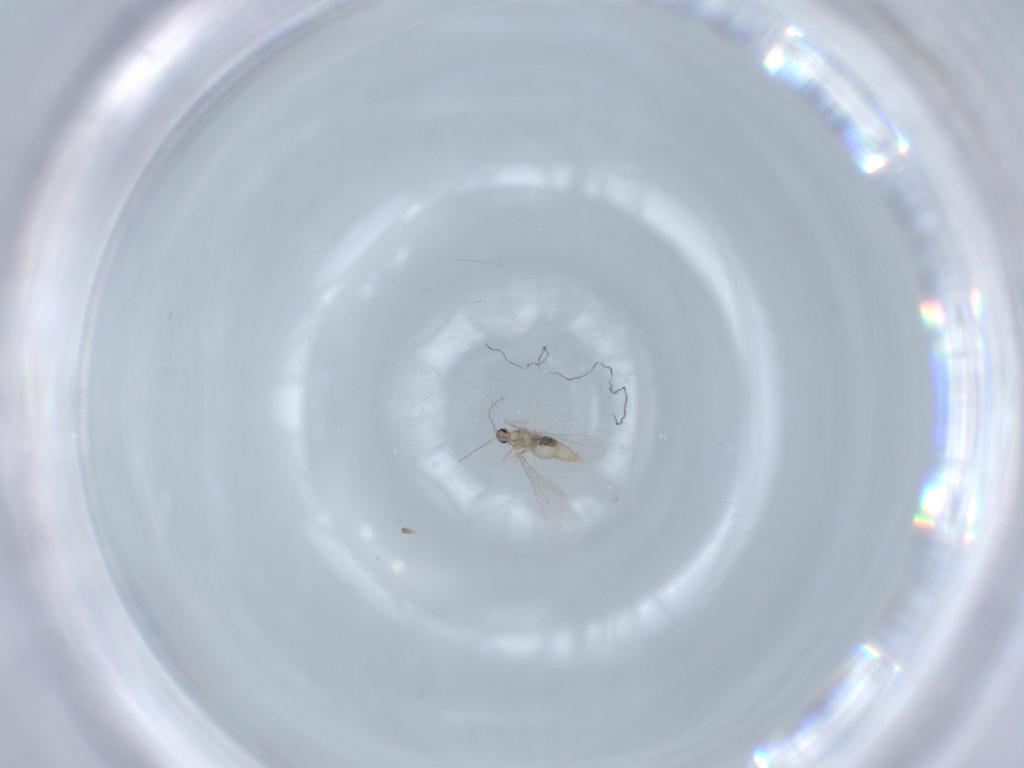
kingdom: Animalia
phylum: Arthropoda
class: Insecta
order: Diptera
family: Cecidomyiidae
